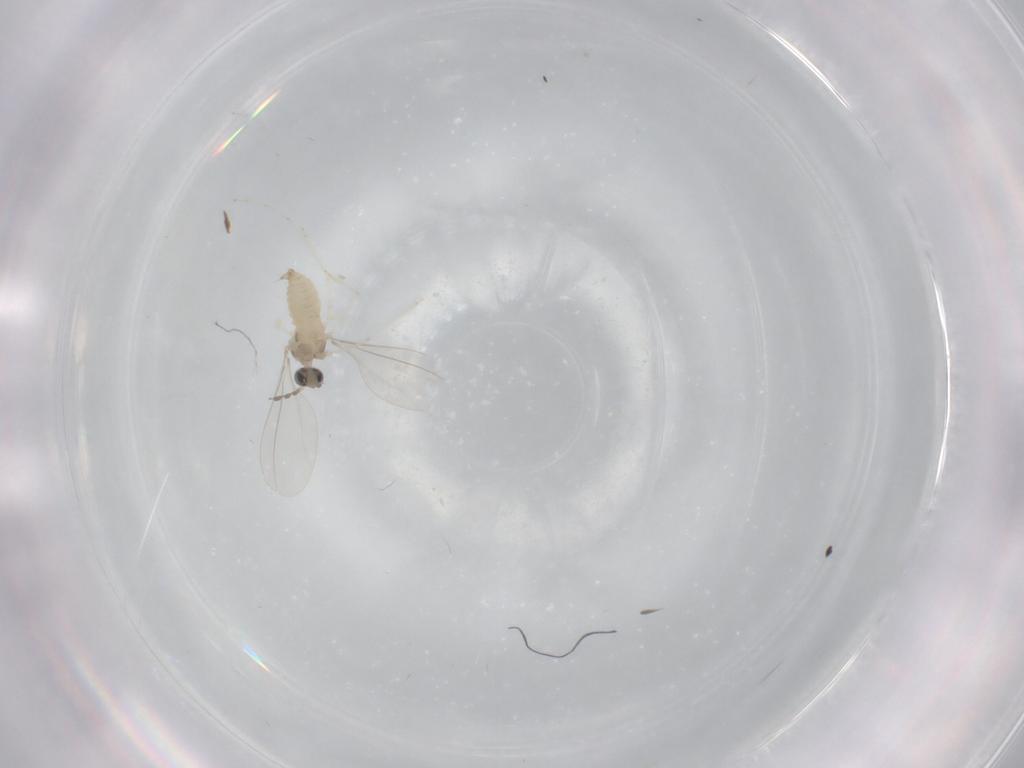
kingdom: Animalia
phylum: Arthropoda
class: Insecta
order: Diptera
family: Cecidomyiidae
